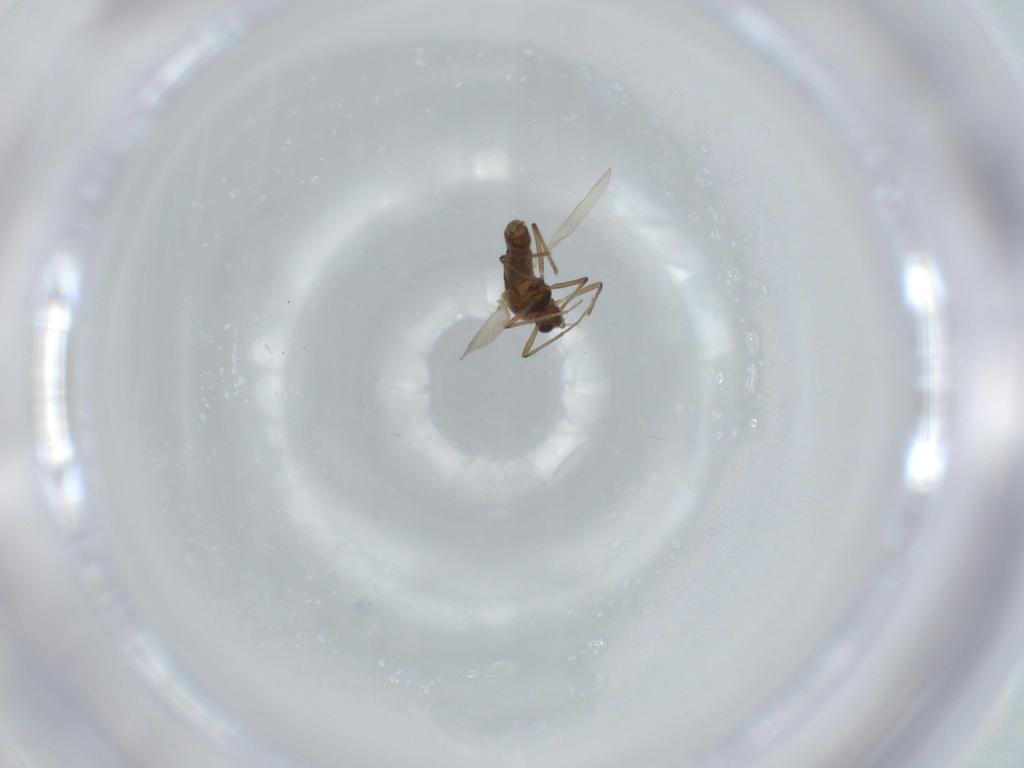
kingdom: Animalia
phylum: Arthropoda
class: Insecta
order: Diptera
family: Chironomidae
